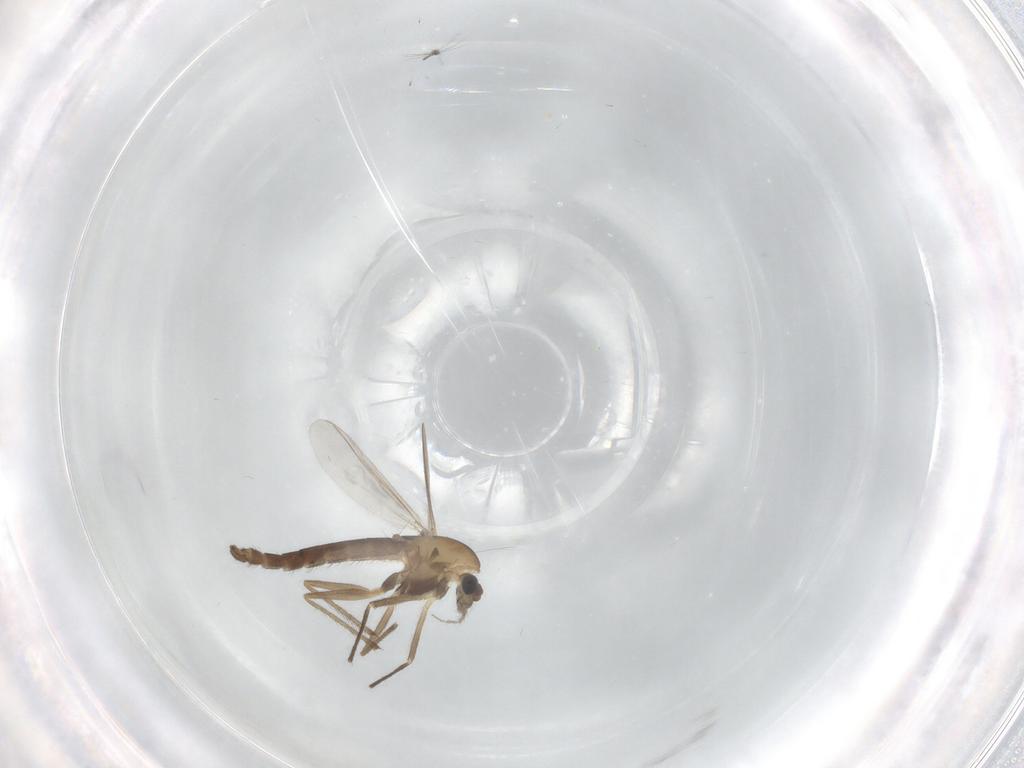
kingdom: Animalia
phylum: Arthropoda
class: Insecta
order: Diptera
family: Chironomidae
